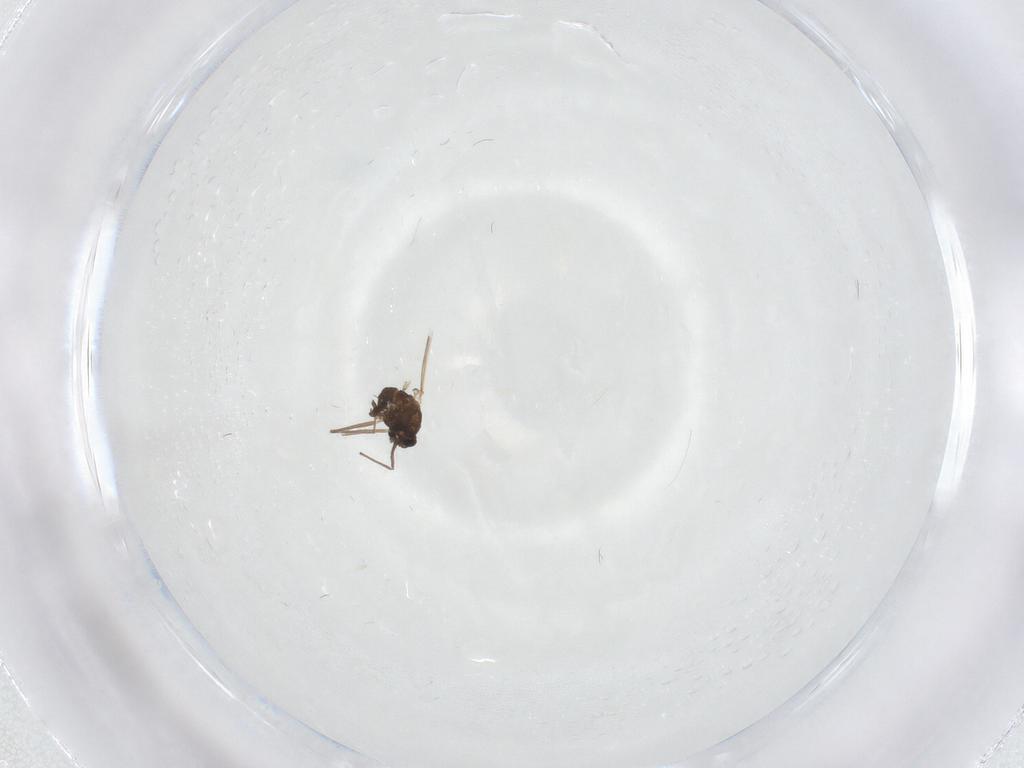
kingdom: Animalia
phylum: Arthropoda
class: Insecta
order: Diptera
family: Chironomidae
